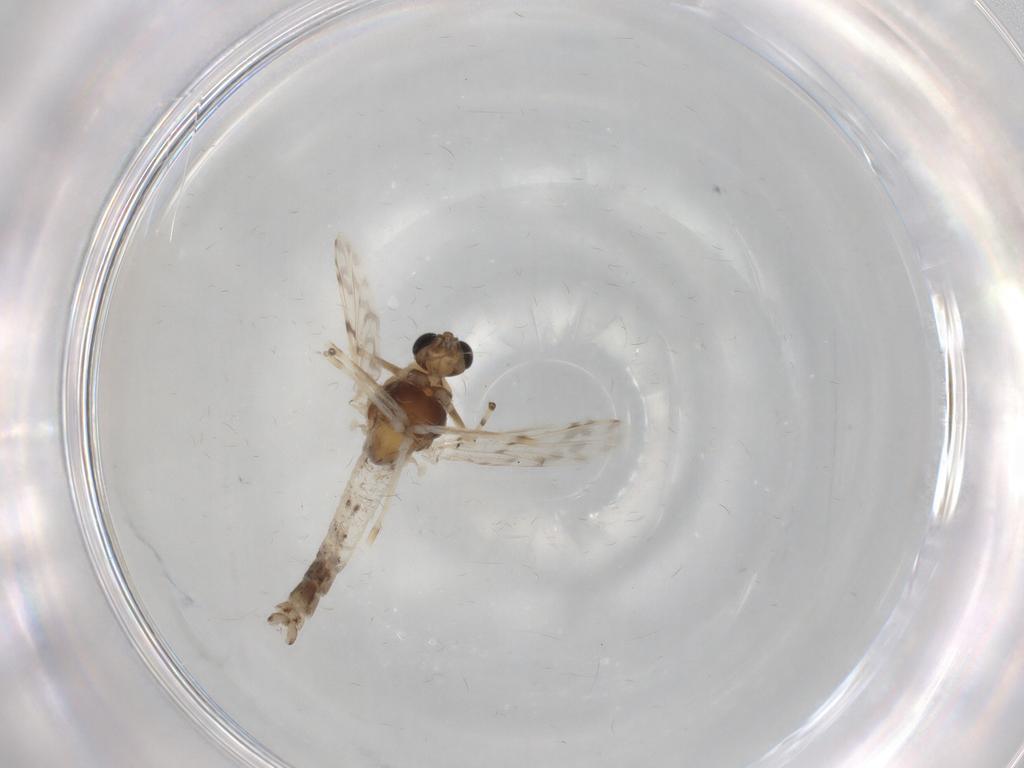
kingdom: Animalia
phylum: Arthropoda
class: Insecta
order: Diptera
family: Chironomidae
